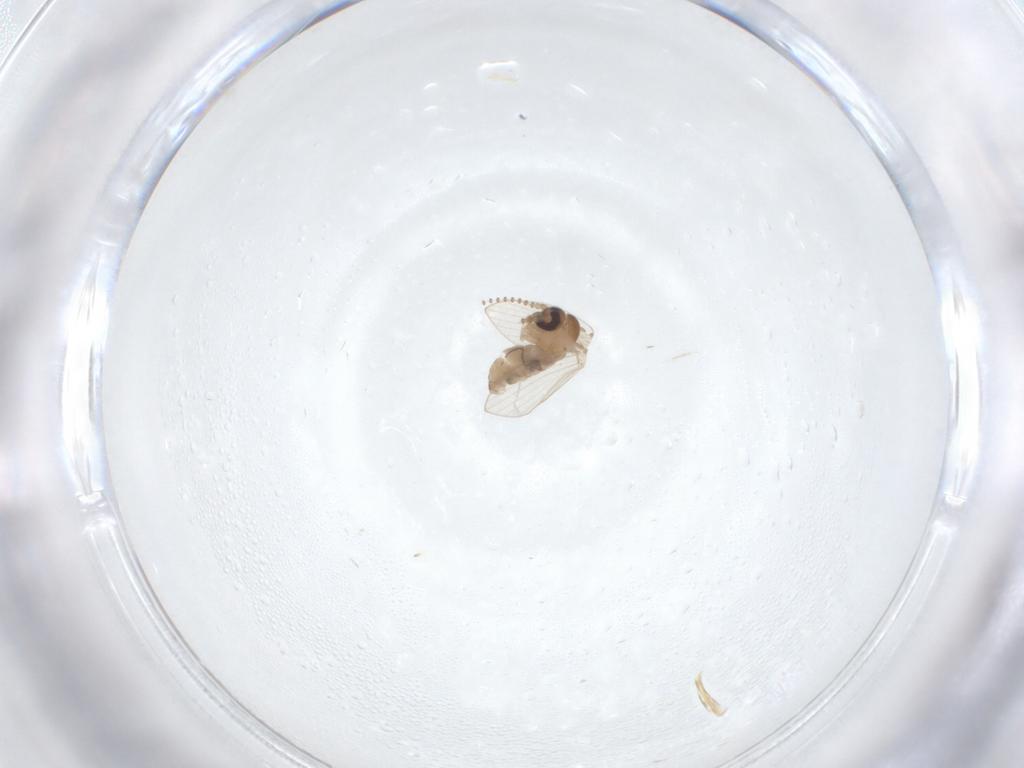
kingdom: Animalia
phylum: Arthropoda
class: Insecta
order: Diptera
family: Psychodidae
